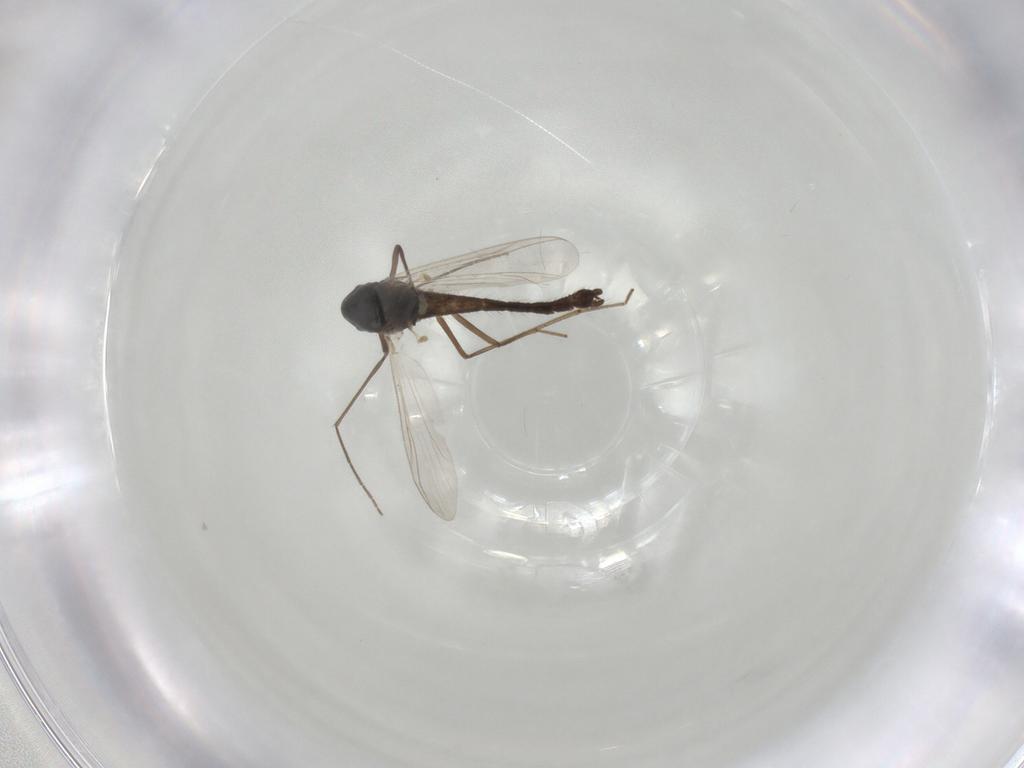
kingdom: Animalia
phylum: Arthropoda
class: Insecta
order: Diptera
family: Chironomidae
